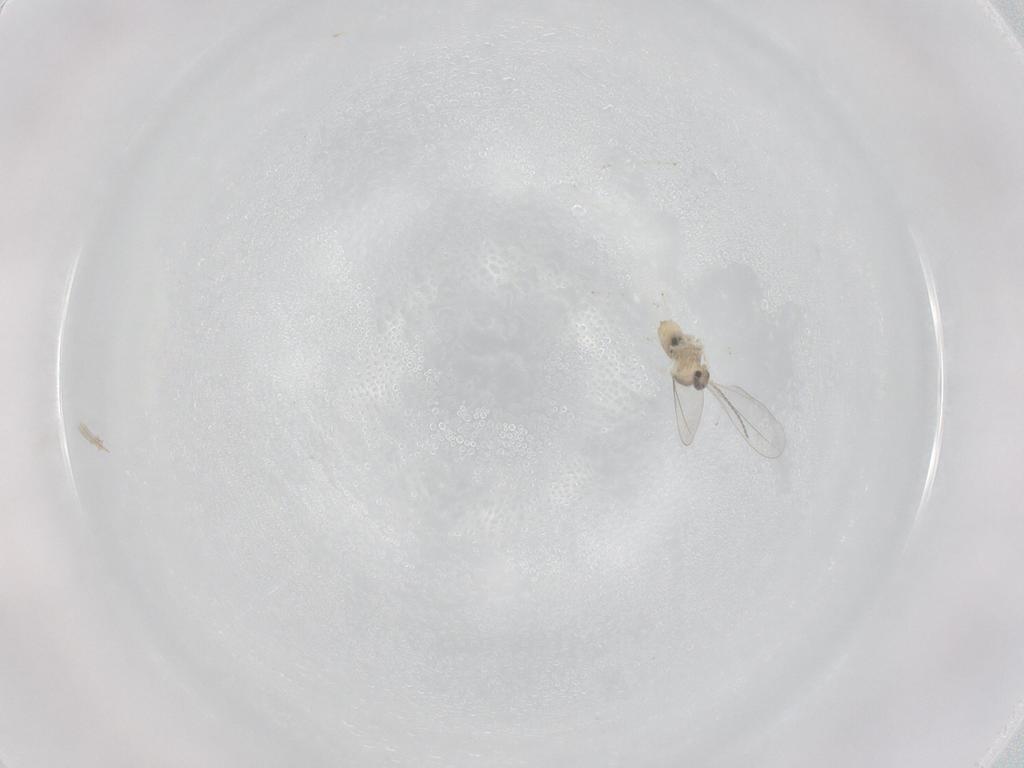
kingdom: Animalia
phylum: Arthropoda
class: Insecta
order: Diptera
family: Cecidomyiidae
